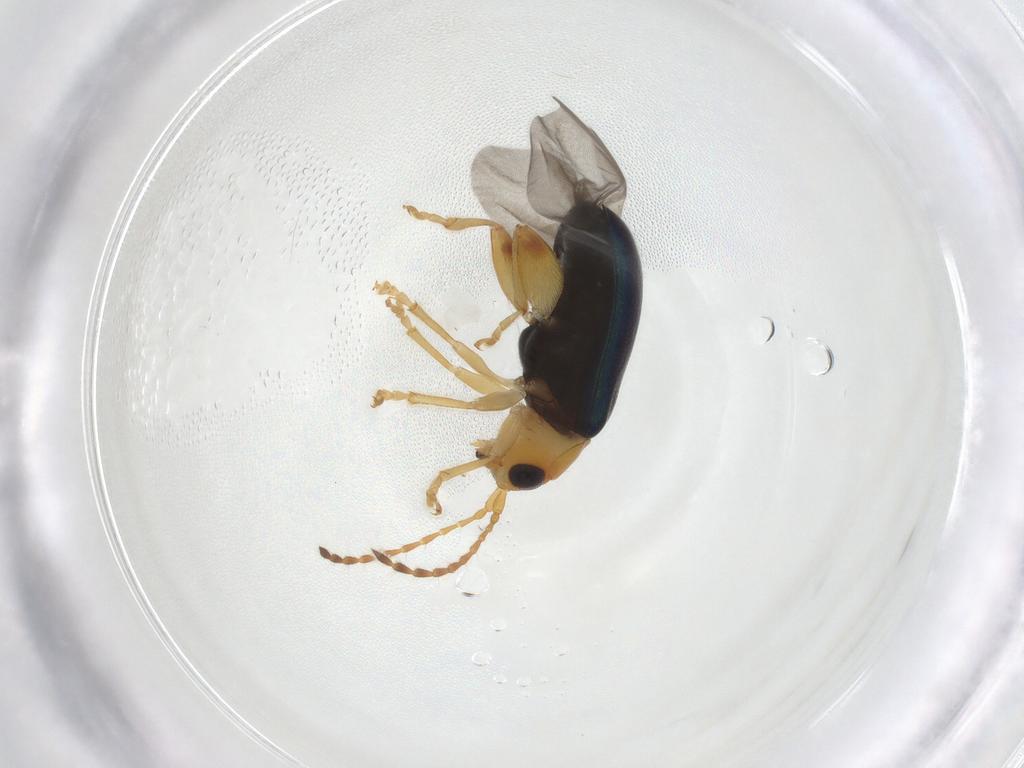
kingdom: Animalia
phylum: Arthropoda
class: Insecta
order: Coleoptera
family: Chrysomelidae
